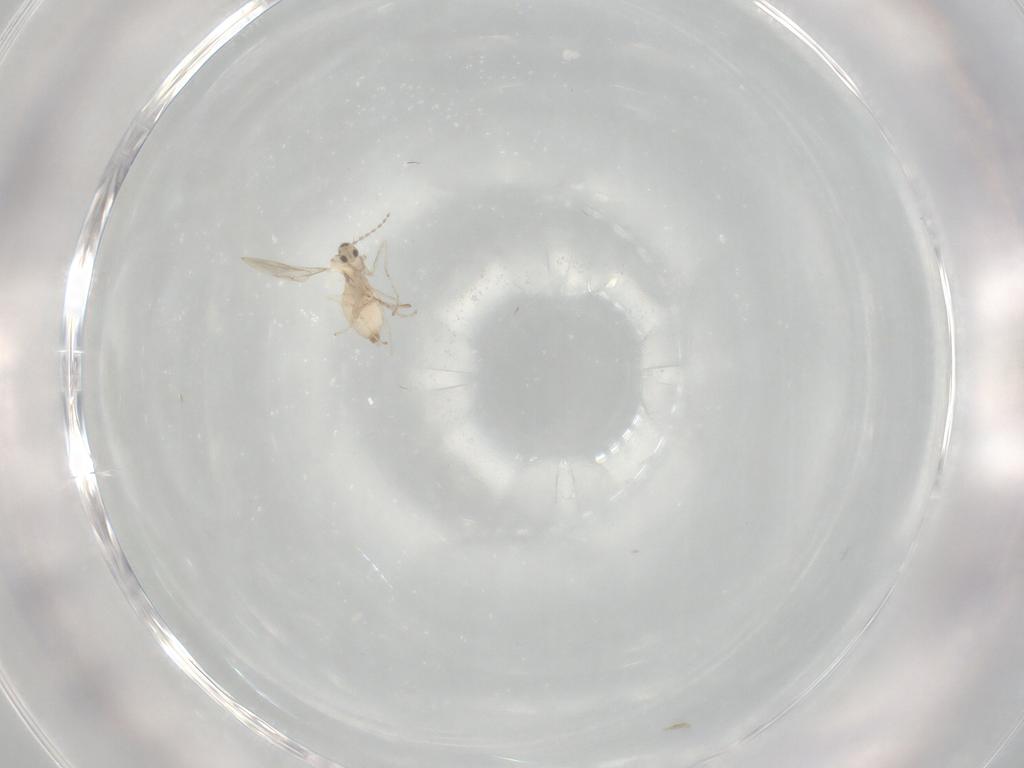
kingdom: Animalia
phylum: Arthropoda
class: Insecta
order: Diptera
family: Cecidomyiidae
